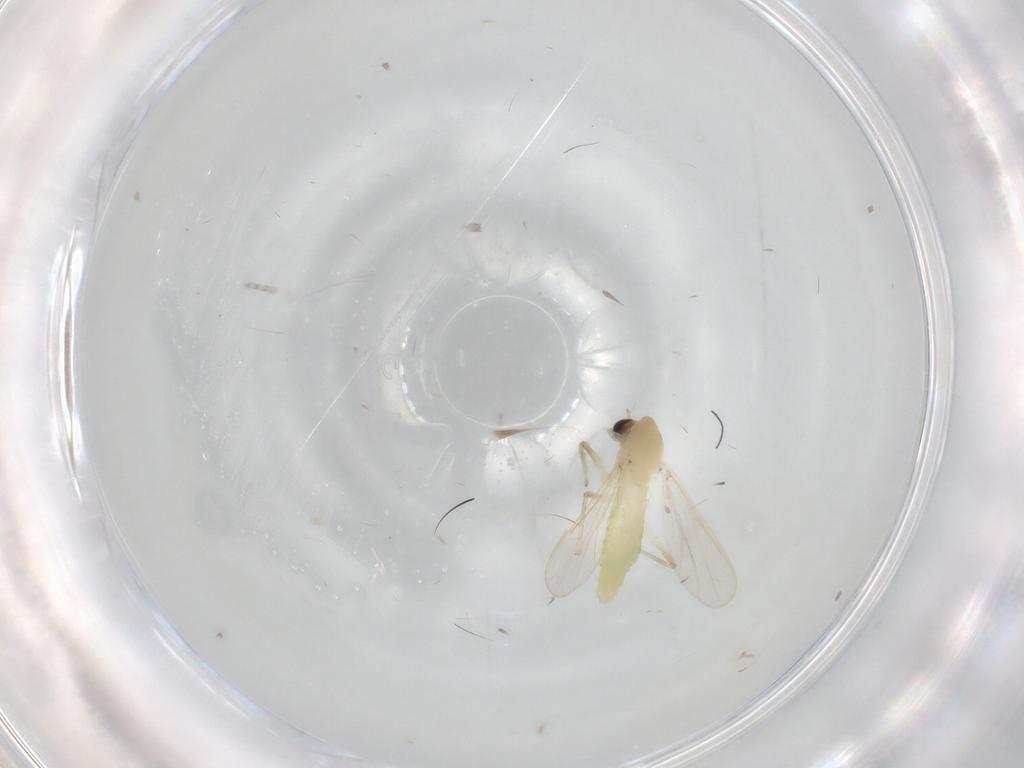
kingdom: Animalia
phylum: Arthropoda
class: Insecta
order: Diptera
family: Chironomidae
